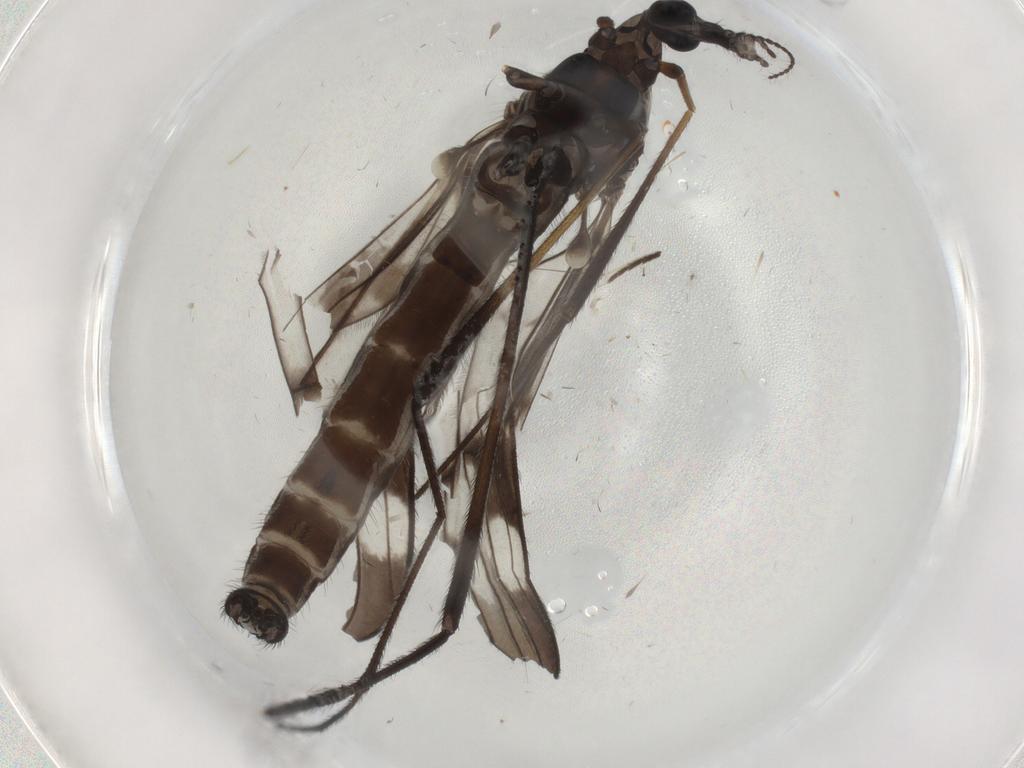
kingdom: Animalia
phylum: Arthropoda
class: Insecta
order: Diptera
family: Limoniidae
